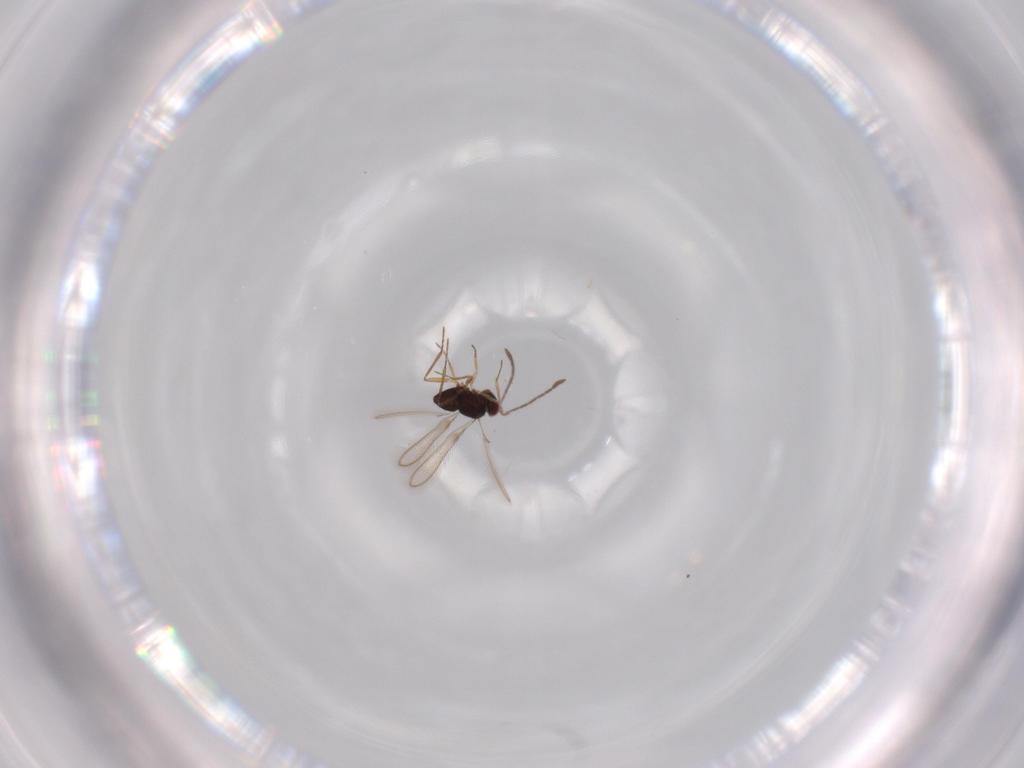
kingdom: Animalia
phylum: Arthropoda
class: Insecta
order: Hymenoptera
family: Mymaridae
